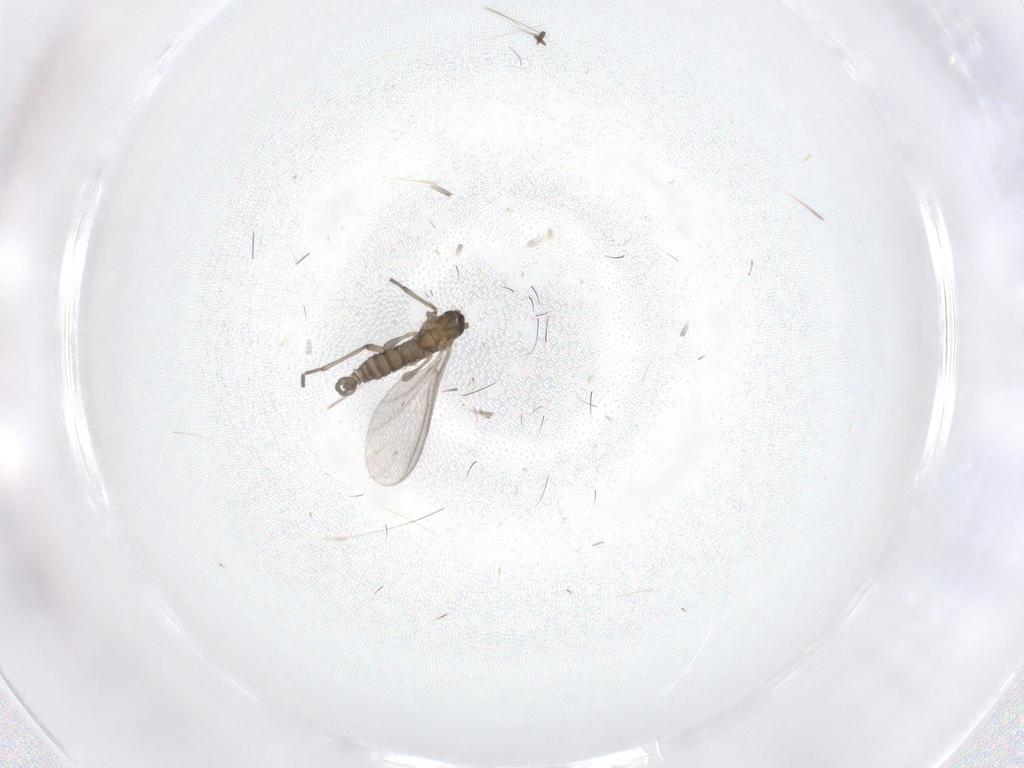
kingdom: Animalia
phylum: Arthropoda
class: Insecta
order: Diptera
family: Sciaridae
